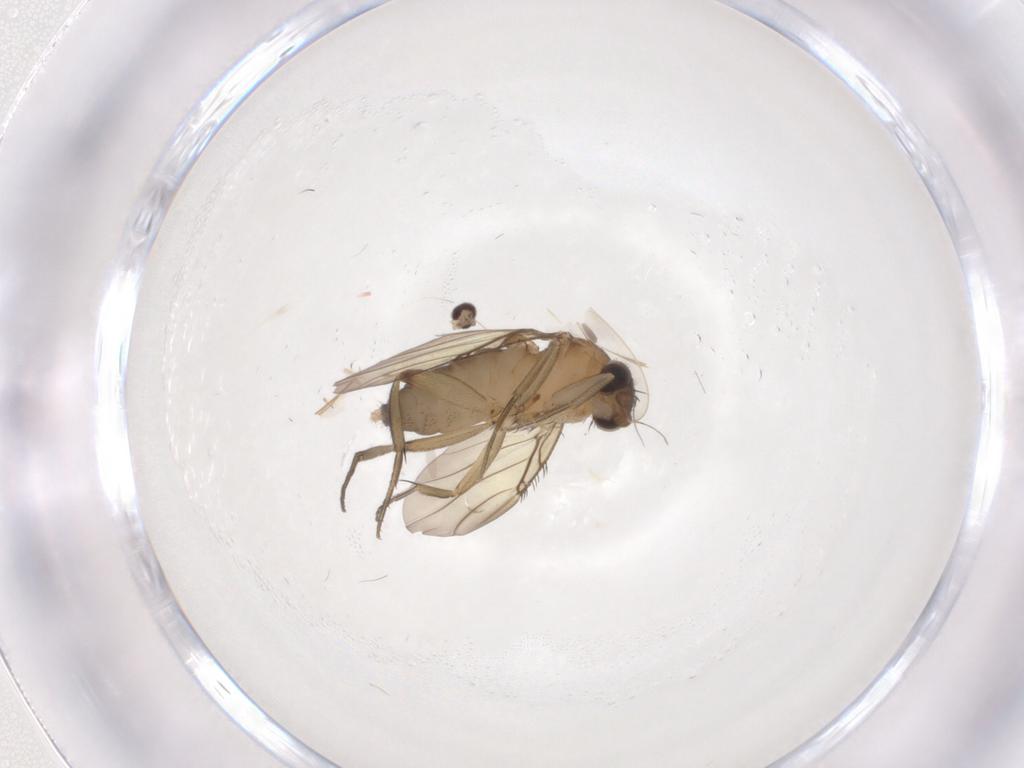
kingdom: Animalia
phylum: Arthropoda
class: Insecta
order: Diptera
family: Phoridae
